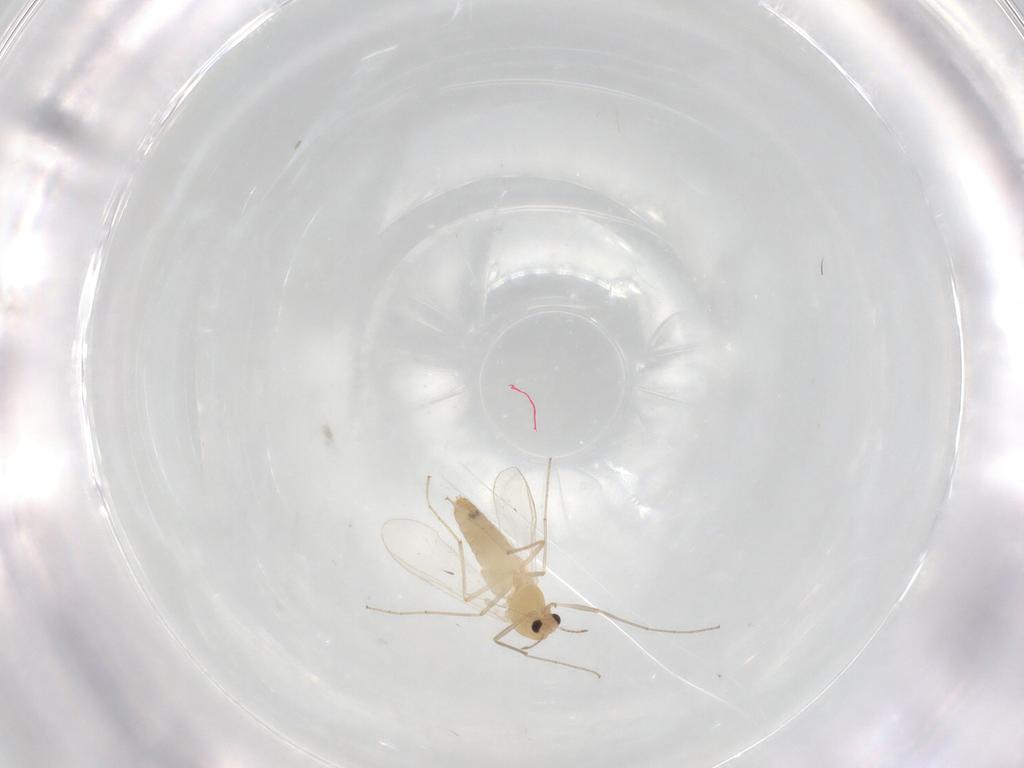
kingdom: Animalia
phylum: Arthropoda
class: Insecta
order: Diptera
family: Chironomidae
